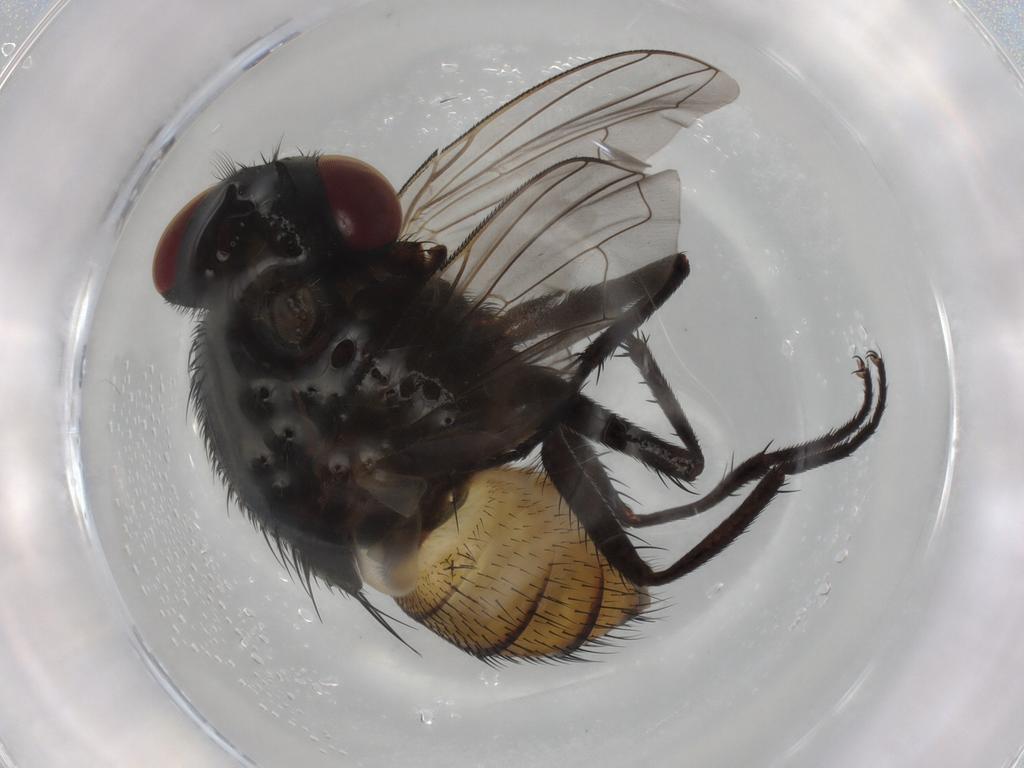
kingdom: Animalia
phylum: Arthropoda
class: Insecta
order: Diptera
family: Muscidae
